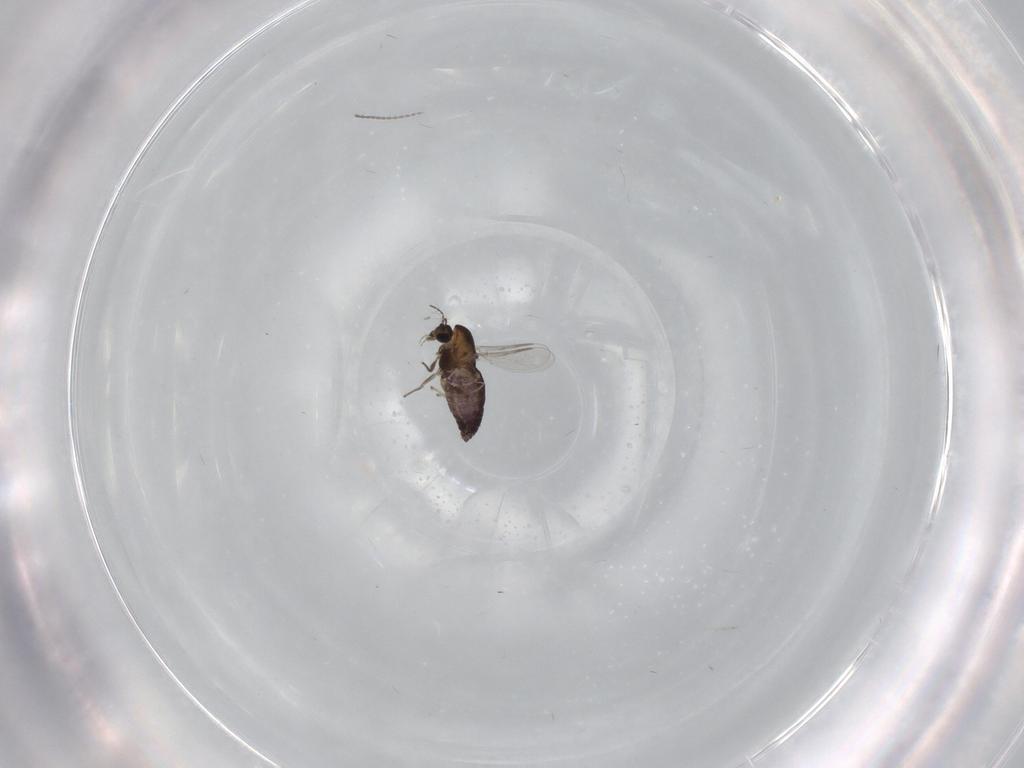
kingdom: Animalia
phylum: Arthropoda
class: Insecta
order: Diptera
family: Chironomidae
